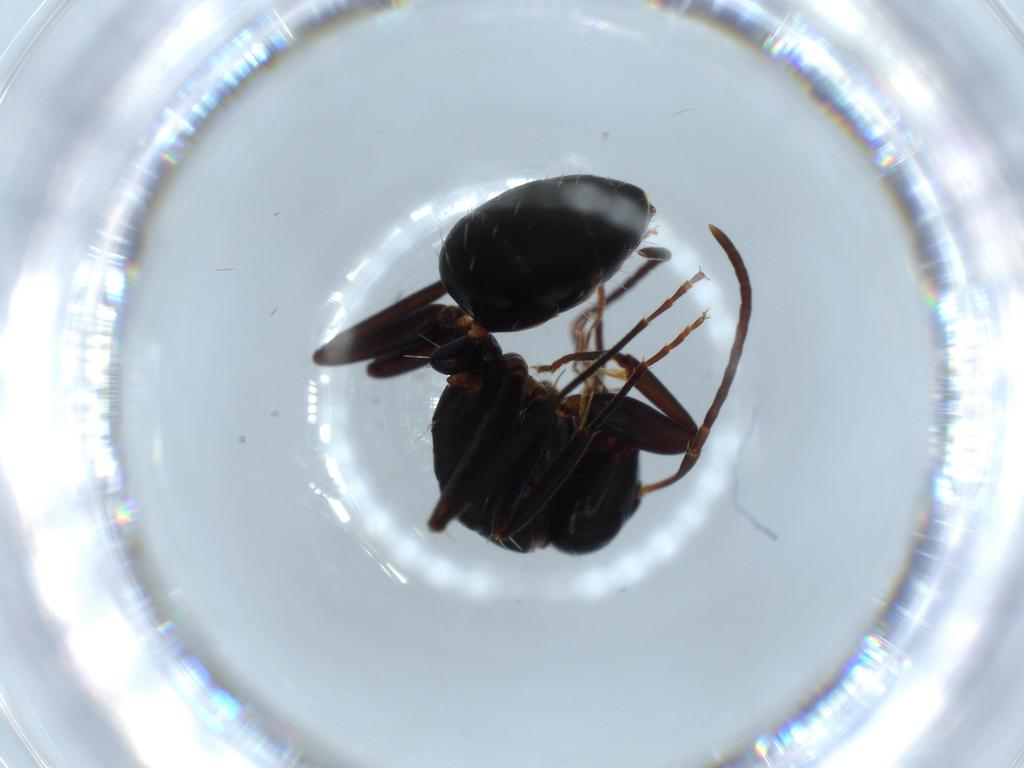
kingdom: Animalia
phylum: Arthropoda
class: Insecta
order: Hymenoptera
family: Formicidae
